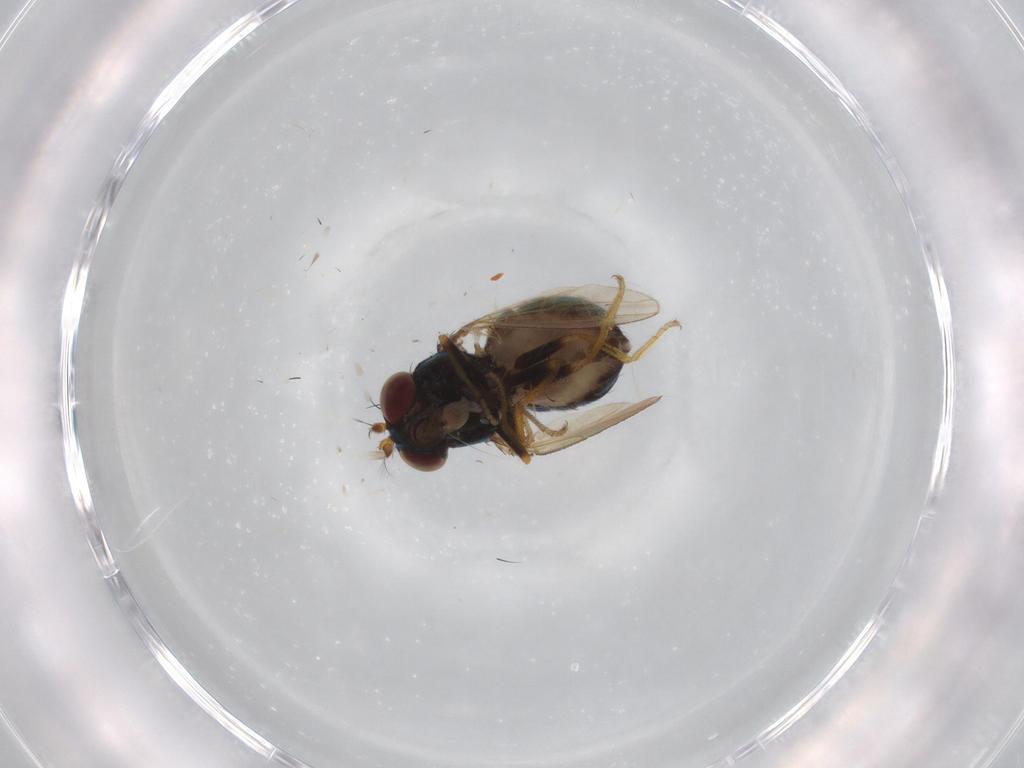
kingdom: Animalia
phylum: Arthropoda
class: Insecta
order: Diptera
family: Ephydridae
